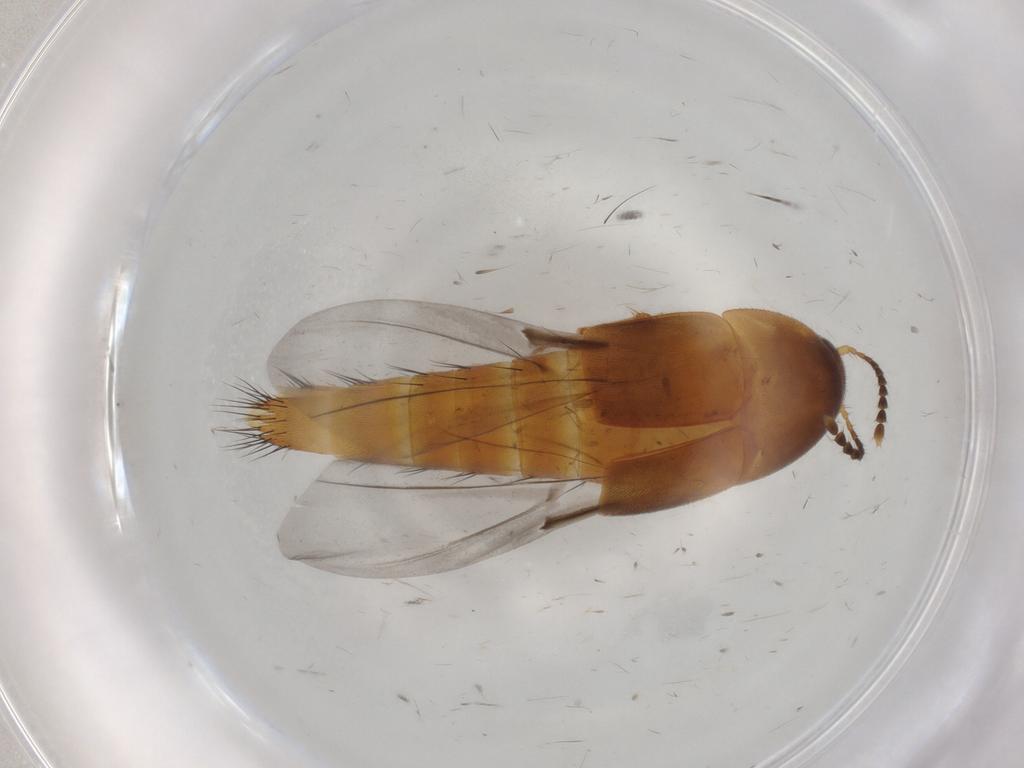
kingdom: Animalia
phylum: Arthropoda
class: Insecta
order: Coleoptera
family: Staphylinidae
